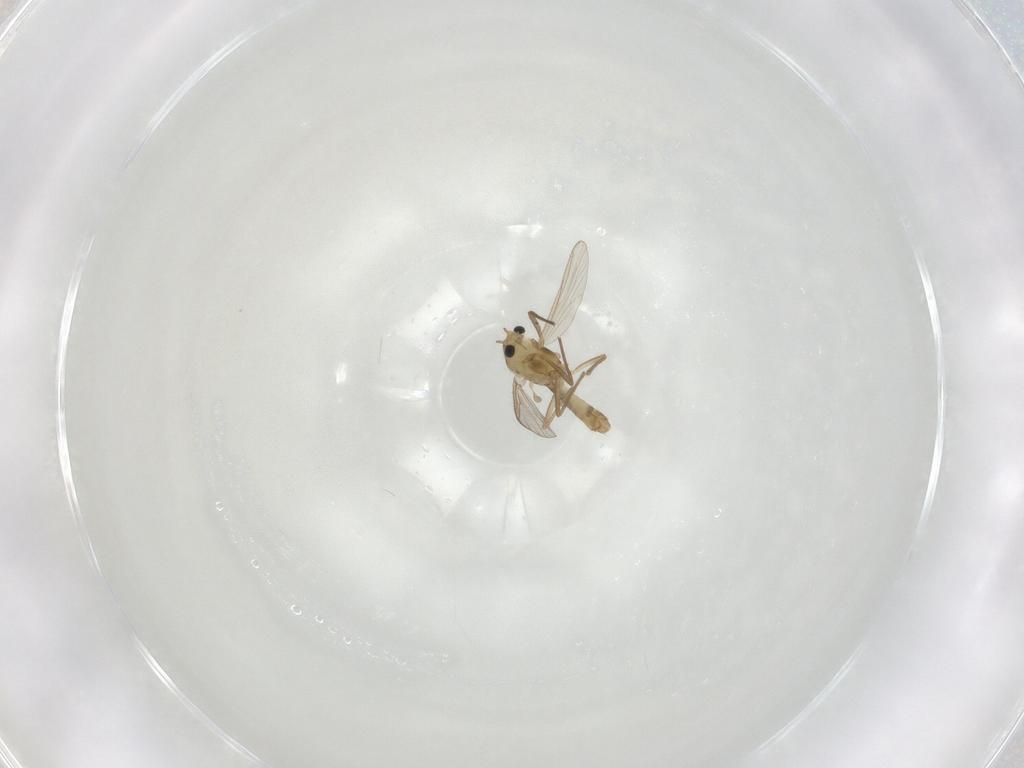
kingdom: Animalia
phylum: Arthropoda
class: Insecta
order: Diptera
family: Chironomidae
